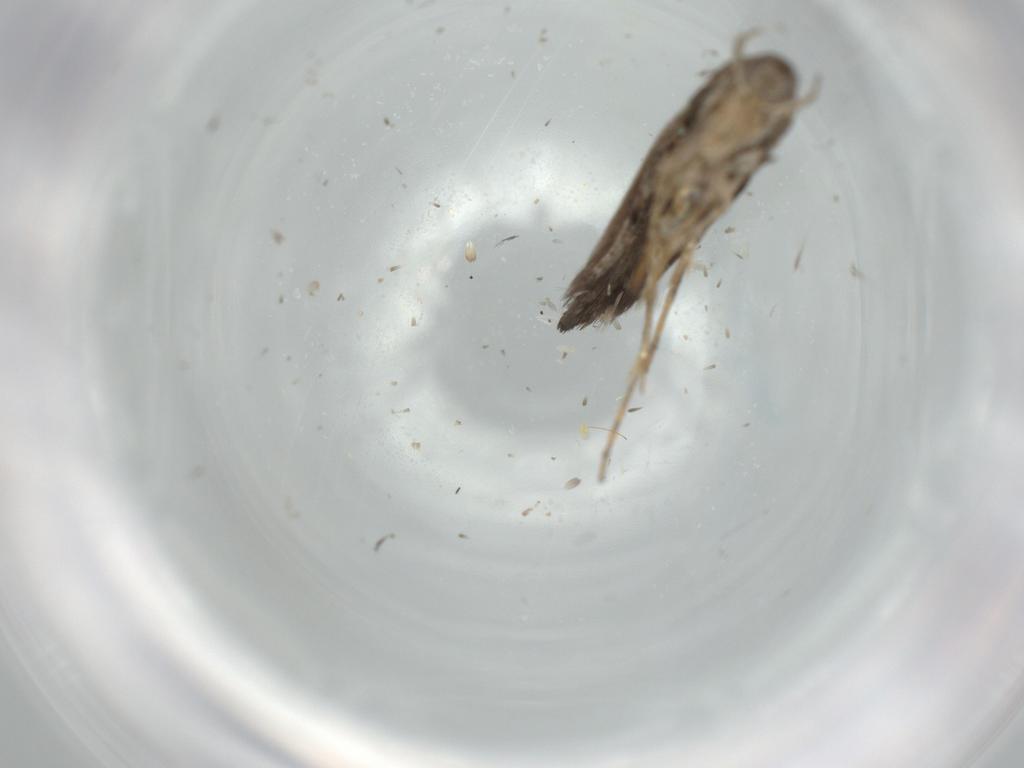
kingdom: Animalia
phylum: Arthropoda
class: Insecta
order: Lepidoptera
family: Momphidae
